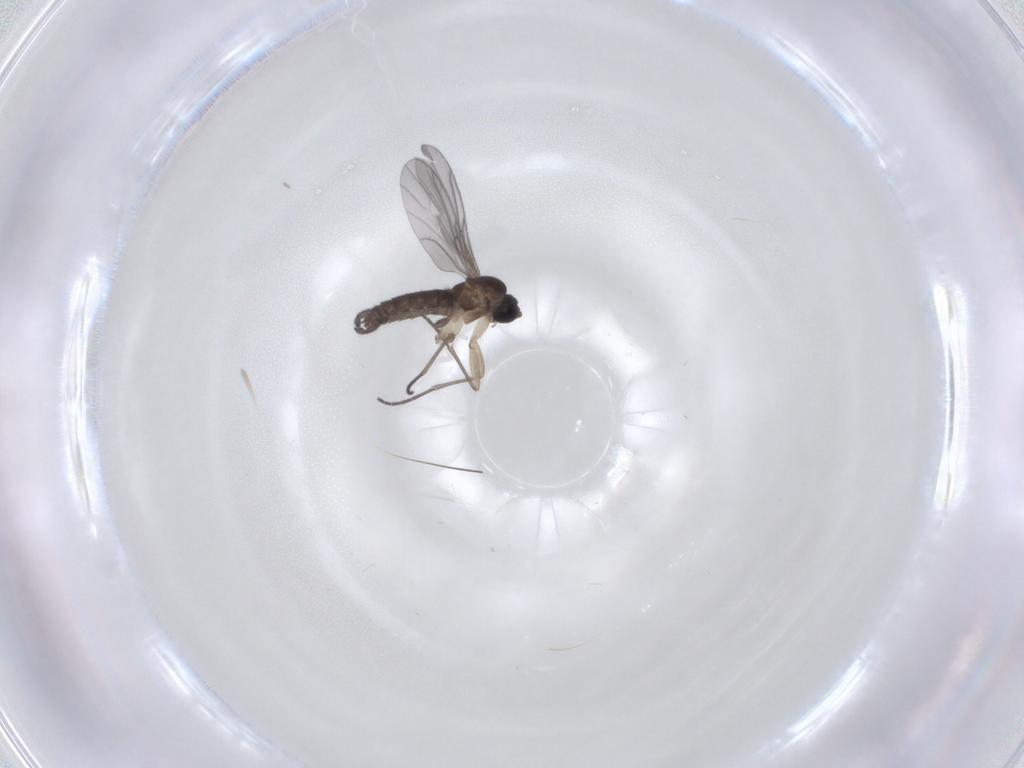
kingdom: Animalia
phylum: Arthropoda
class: Insecta
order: Diptera
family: Sciaridae
